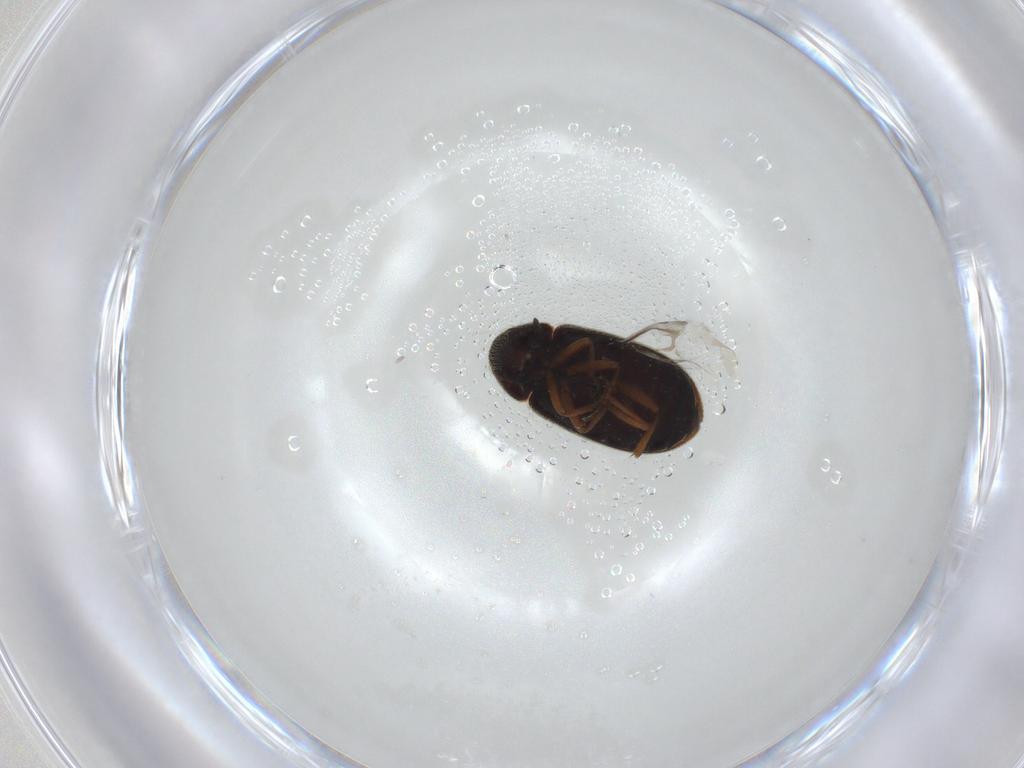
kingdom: Animalia
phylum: Arthropoda
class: Insecta
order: Coleoptera
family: Rhadalidae
